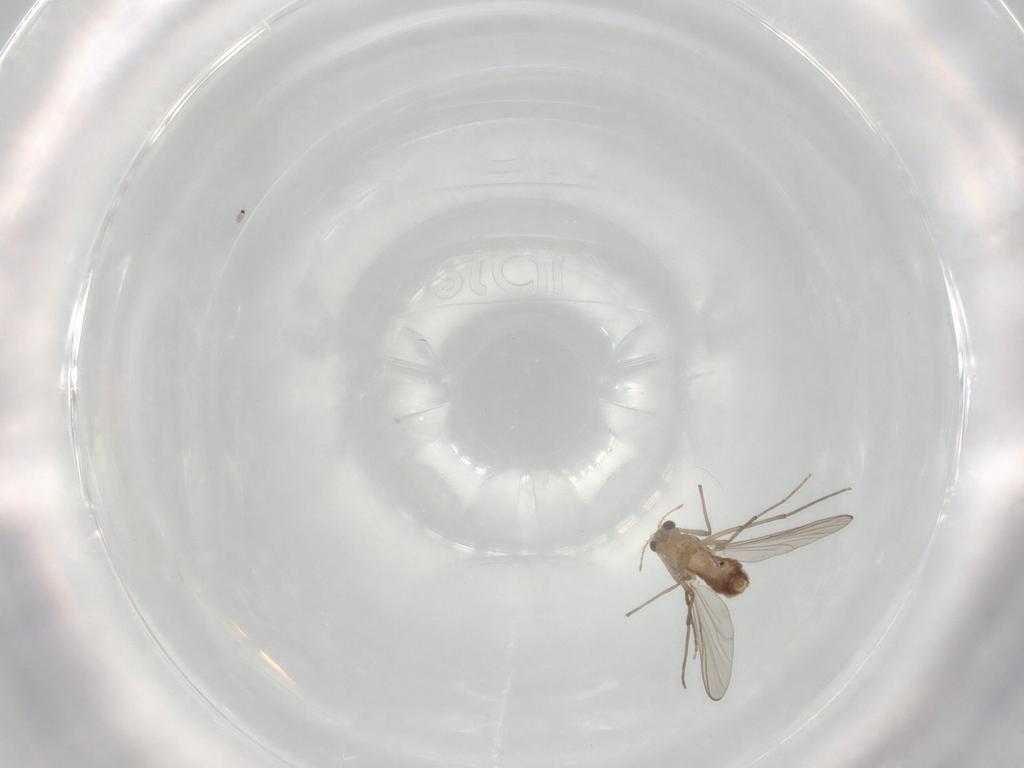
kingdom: Animalia
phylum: Arthropoda
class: Insecta
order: Diptera
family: Chironomidae
